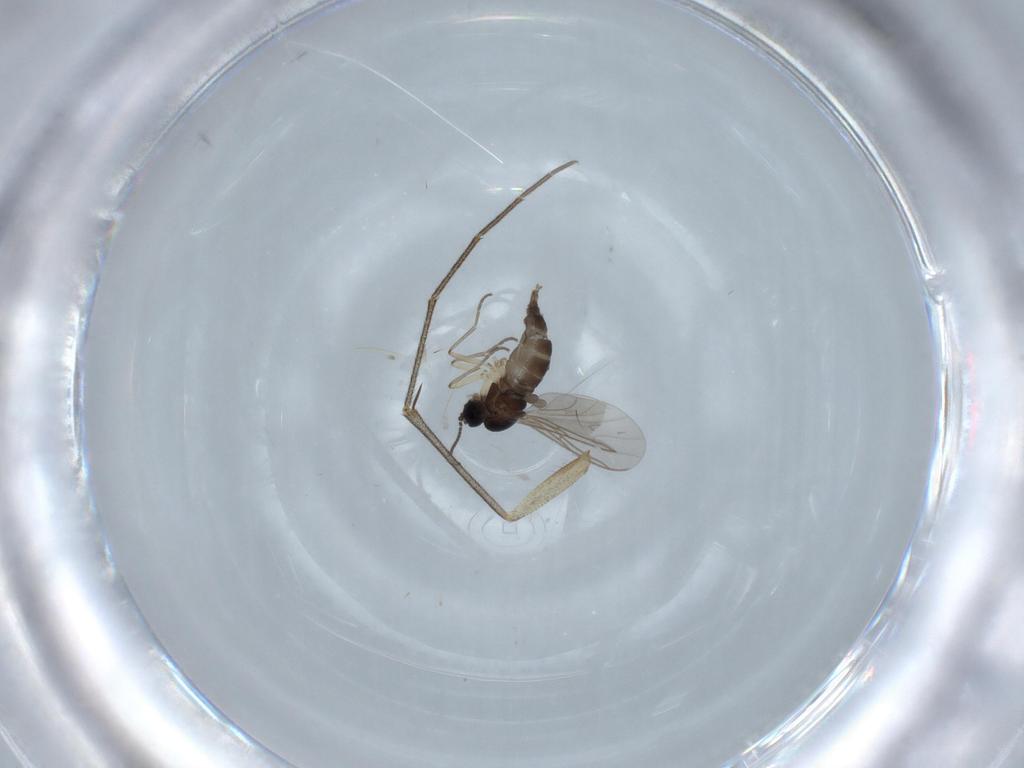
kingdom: Animalia
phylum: Arthropoda
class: Insecta
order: Diptera
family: Sciaridae
